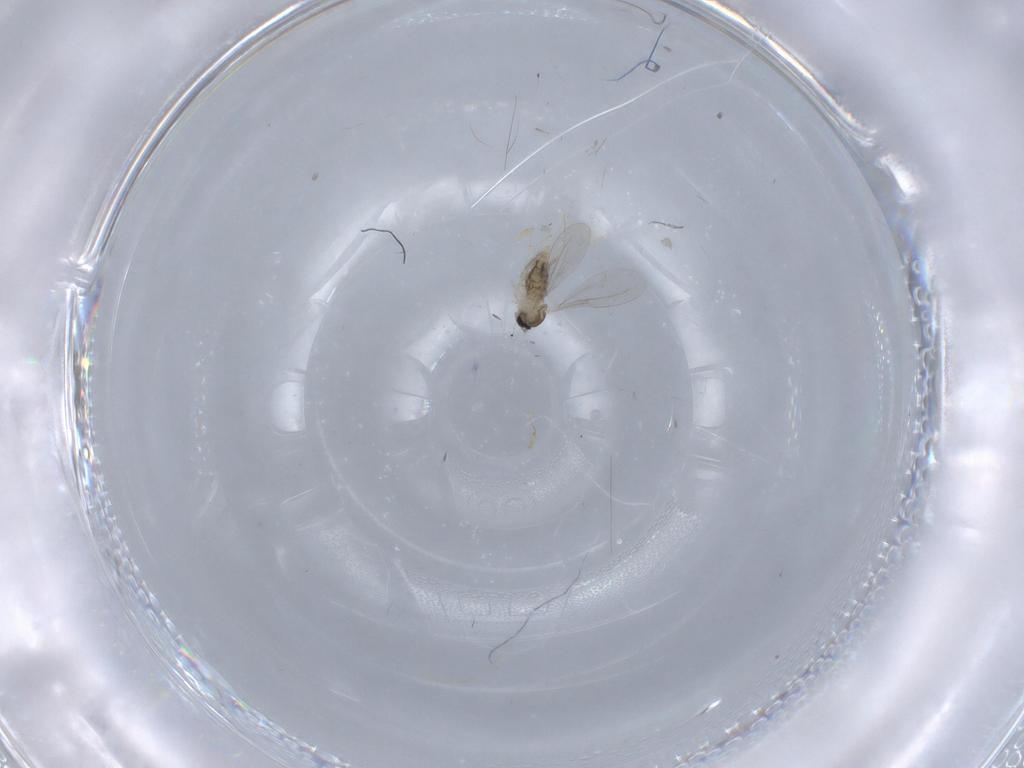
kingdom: Animalia
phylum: Arthropoda
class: Insecta
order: Diptera
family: Cecidomyiidae
